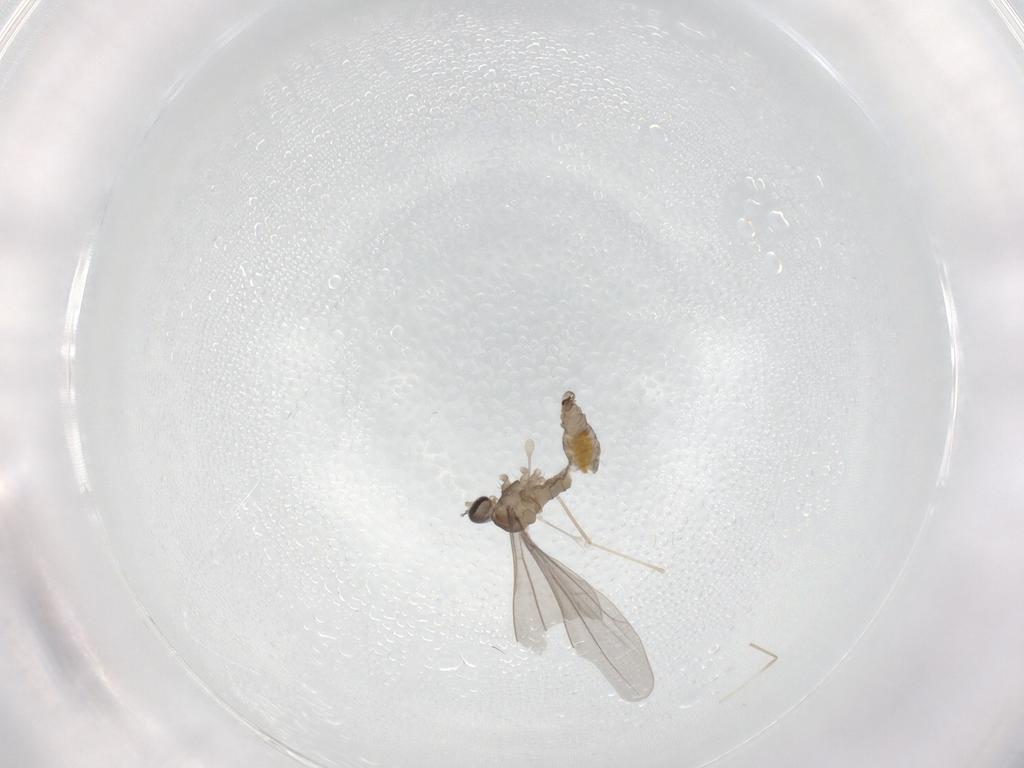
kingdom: Animalia
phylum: Arthropoda
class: Insecta
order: Diptera
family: Cecidomyiidae
